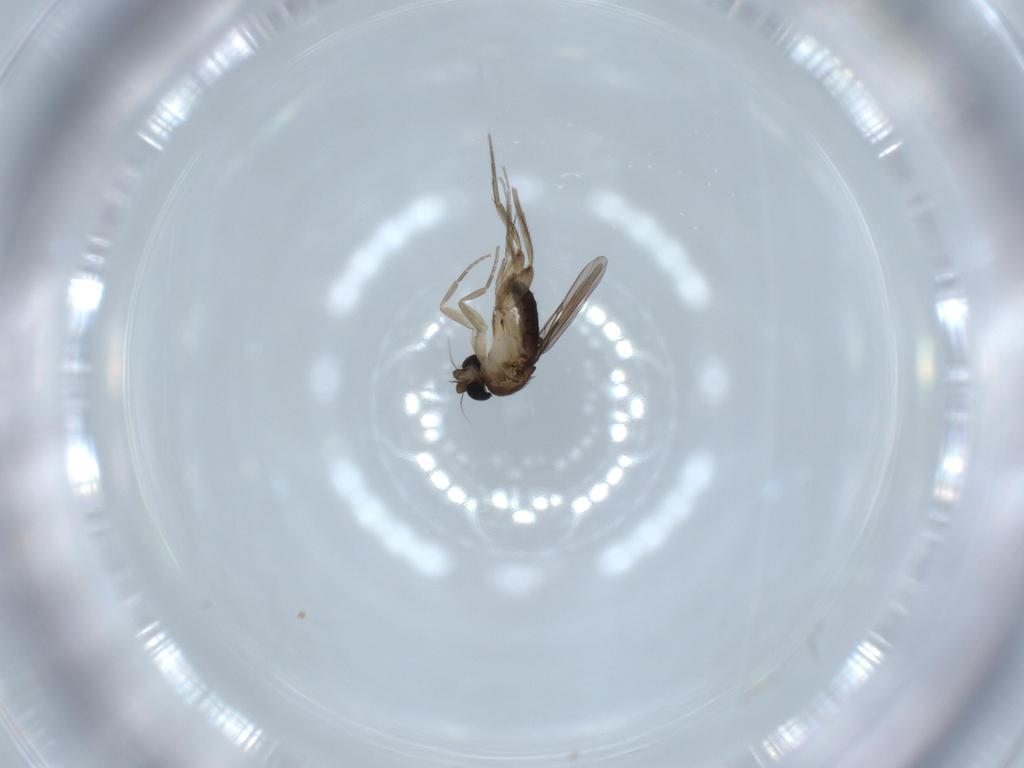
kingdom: Animalia
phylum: Arthropoda
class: Insecta
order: Diptera
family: Phoridae
